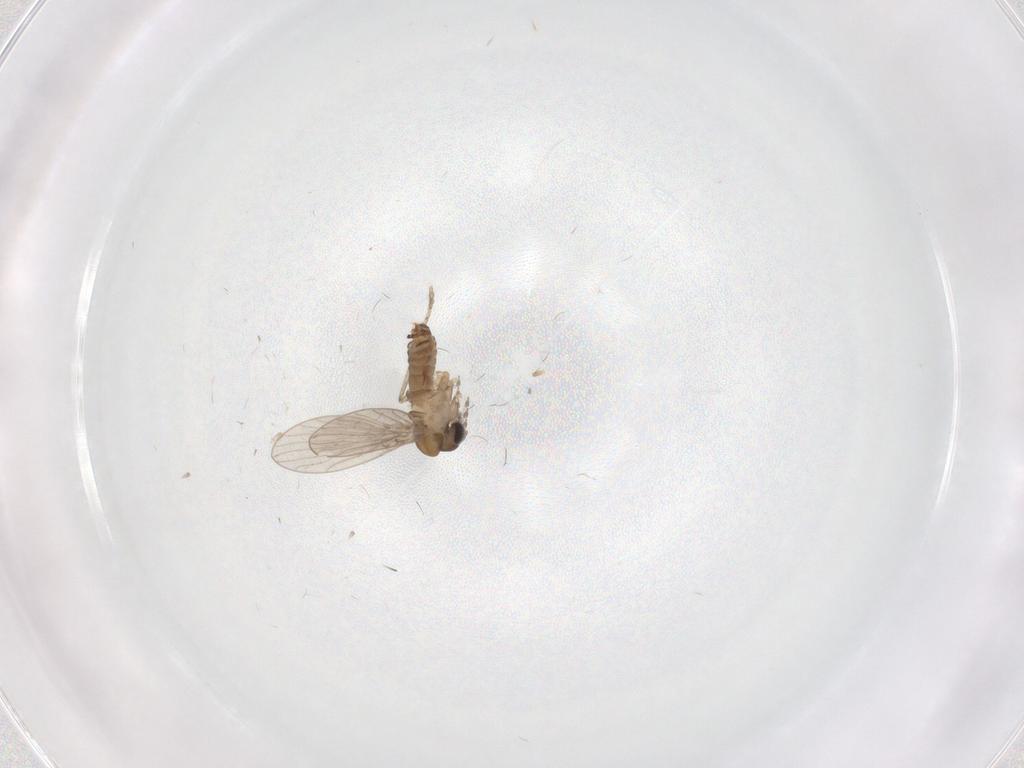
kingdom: Animalia
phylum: Arthropoda
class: Insecta
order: Diptera
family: Psychodidae
